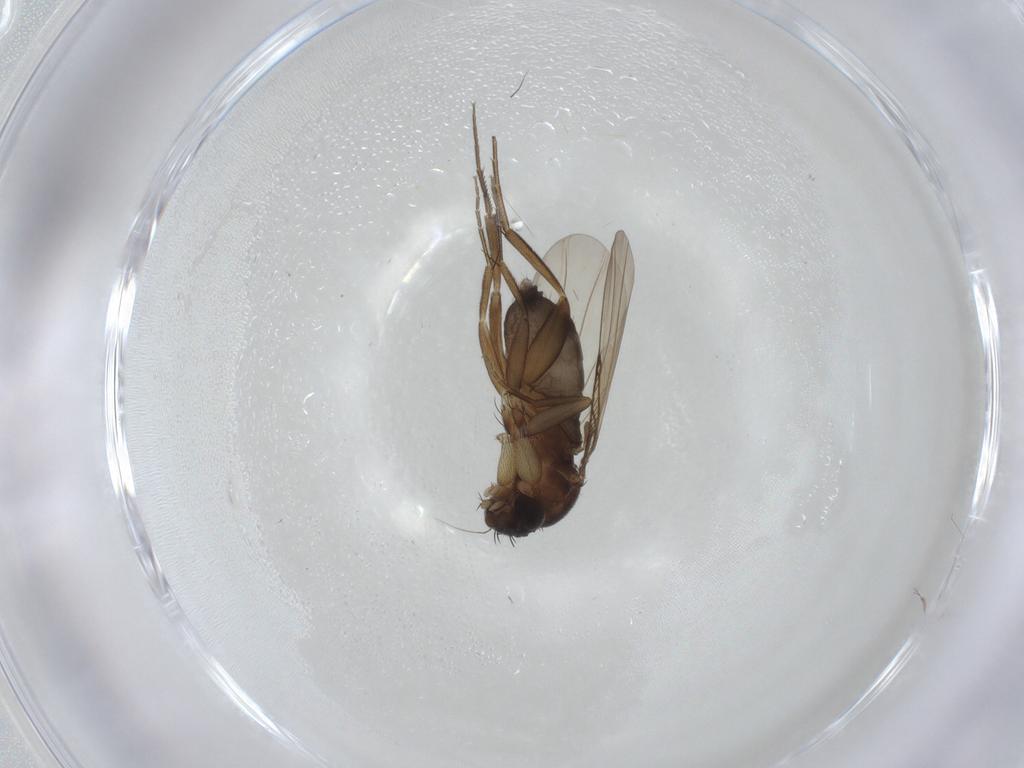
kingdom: Animalia
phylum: Arthropoda
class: Insecta
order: Diptera
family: Phoridae
